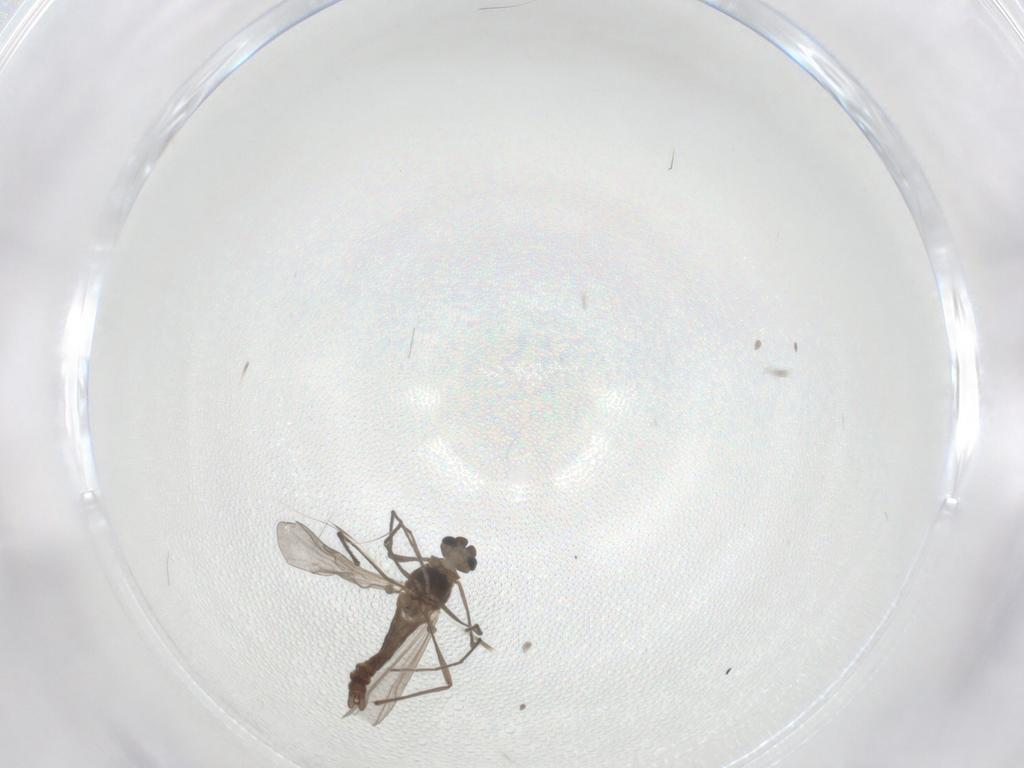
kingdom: Animalia
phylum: Arthropoda
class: Insecta
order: Diptera
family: Chironomidae
